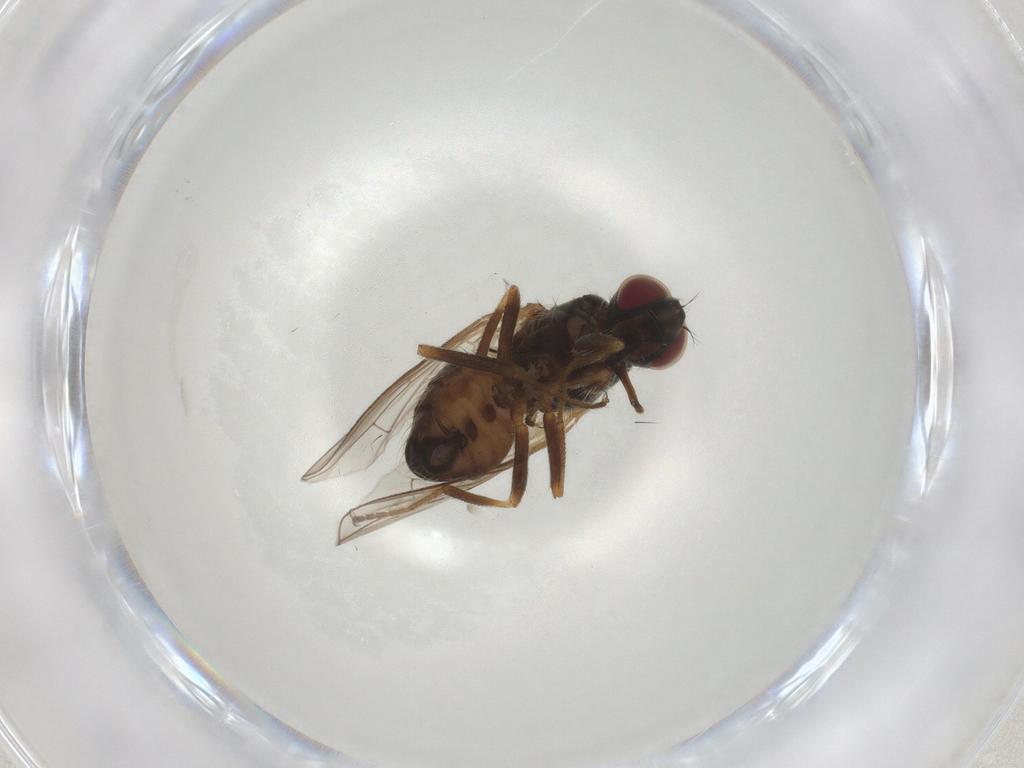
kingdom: Animalia
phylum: Arthropoda
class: Insecta
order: Diptera
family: Muscidae
